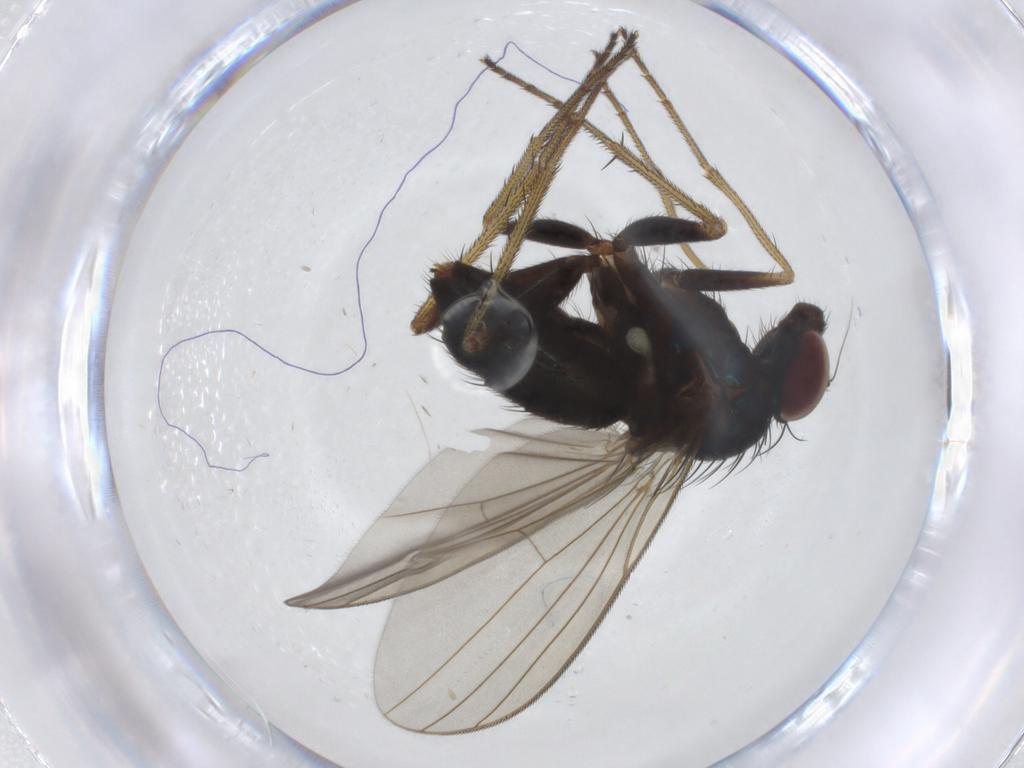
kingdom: Animalia
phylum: Arthropoda
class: Insecta
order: Diptera
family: Dolichopodidae
